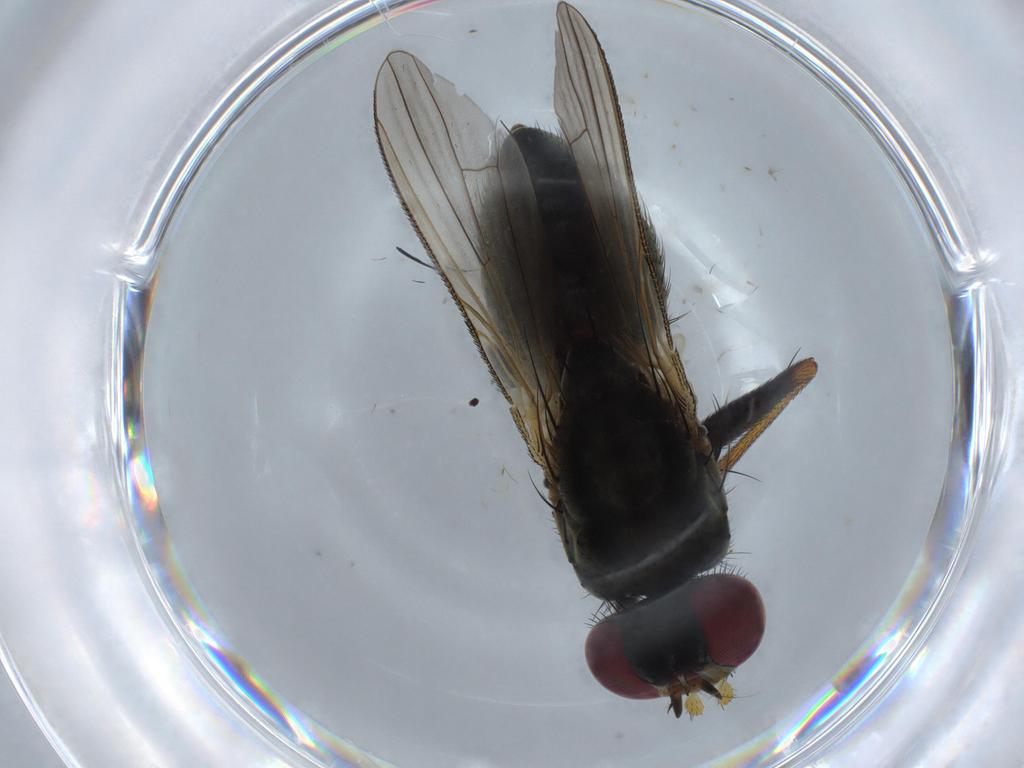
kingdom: Animalia
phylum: Arthropoda
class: Insecta
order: Diptera
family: Muscidae
